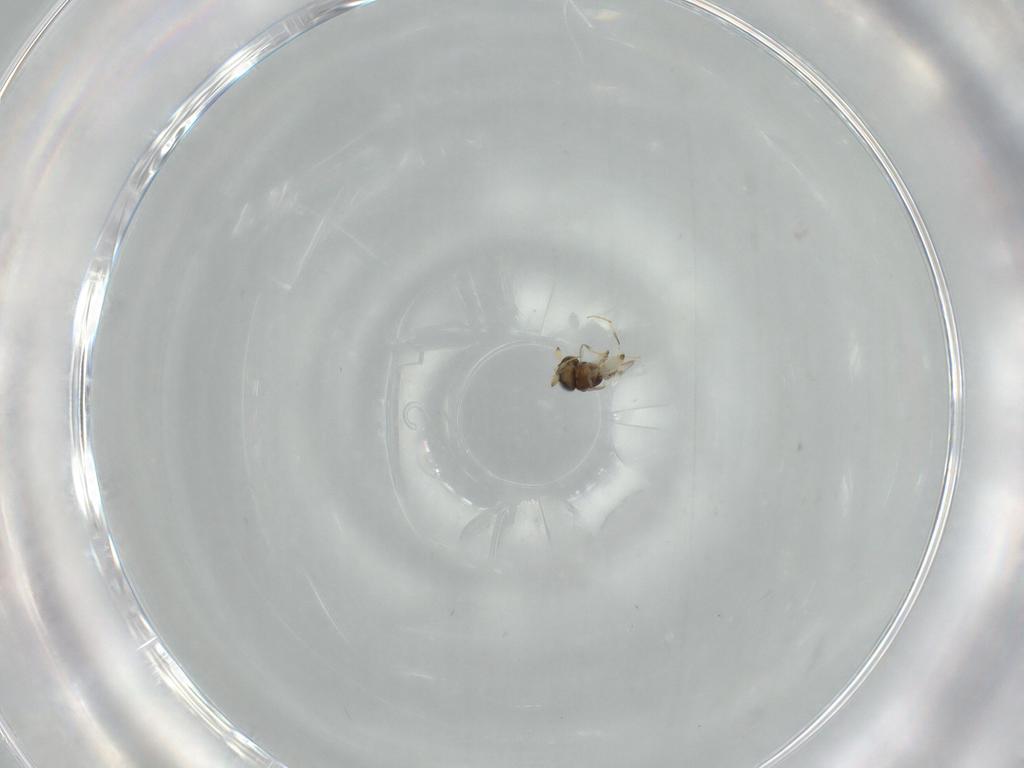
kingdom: Animalia
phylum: Arthropoda
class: Insecta
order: Hymenoptera
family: Scelionidae
